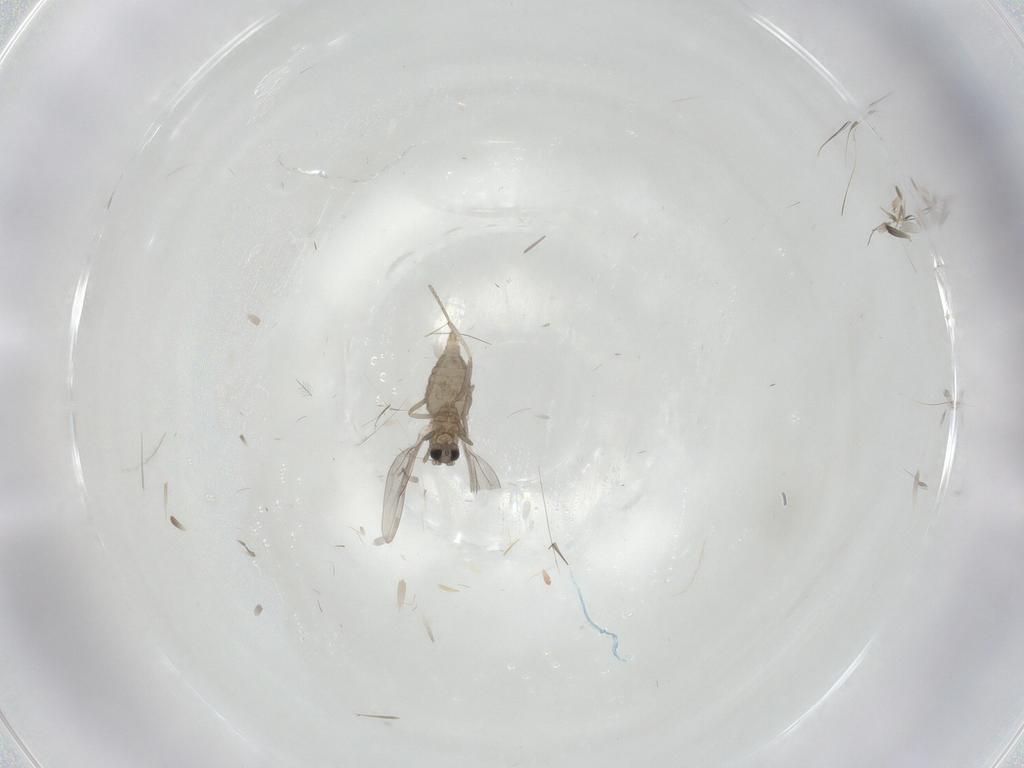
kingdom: Animalia
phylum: Arthropoda
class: Insecta
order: Diptera
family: Cecidomyiidae
